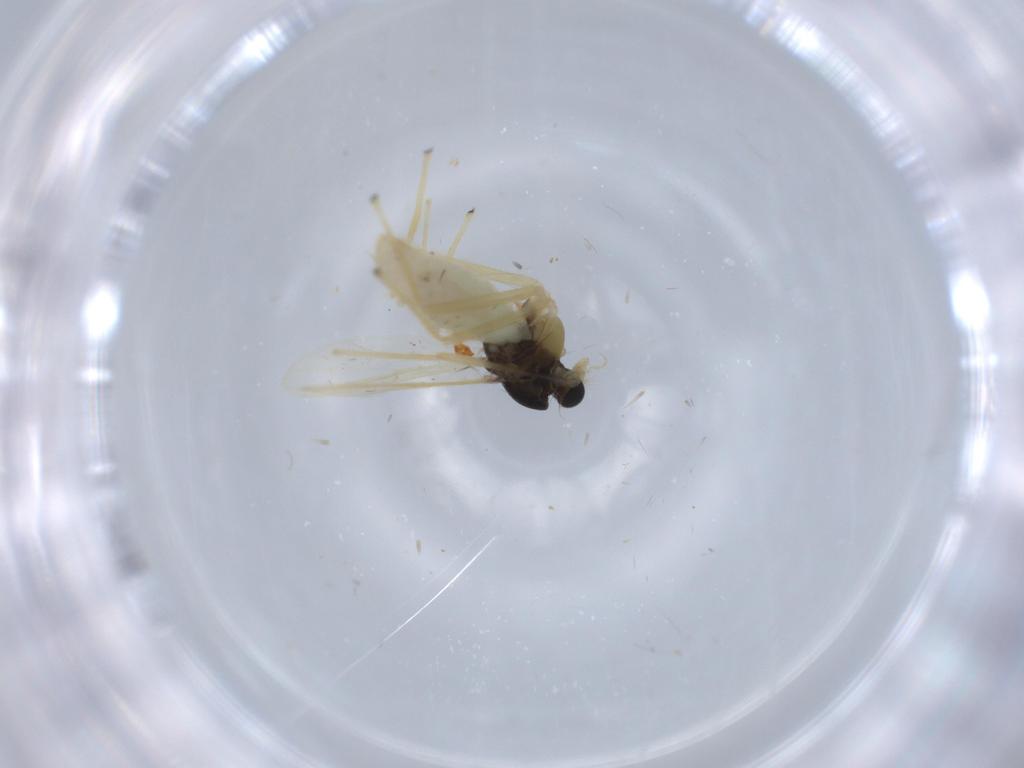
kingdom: Animalia
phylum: Arthropoda
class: Insecta
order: Diptera
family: Chironomidae
